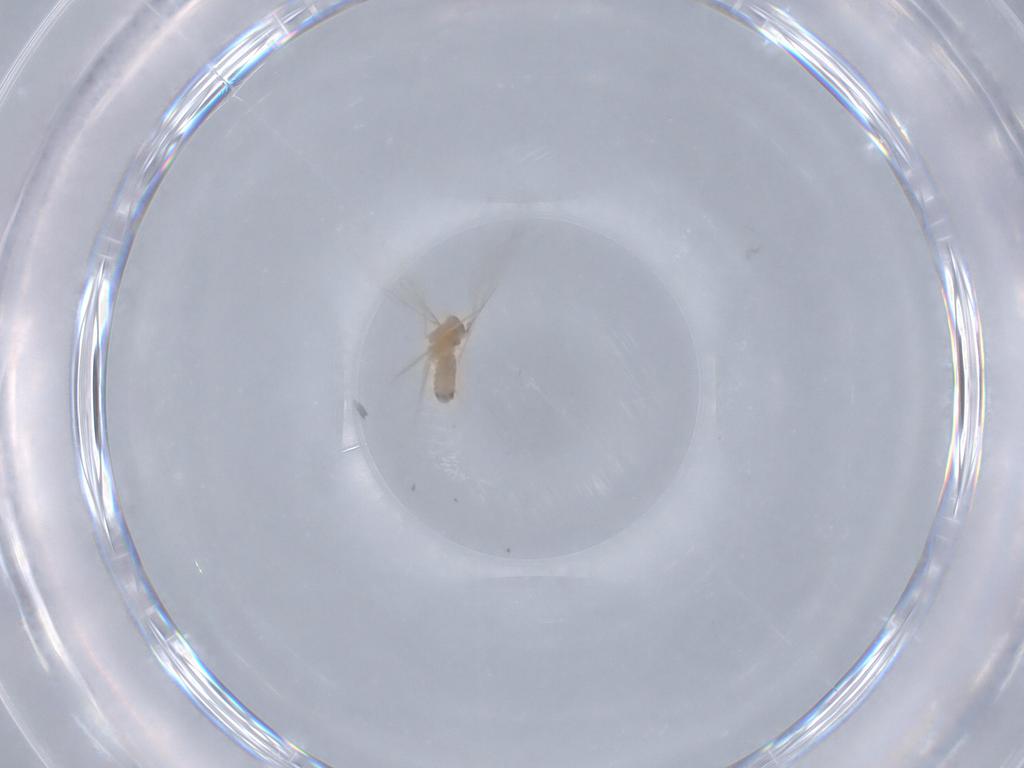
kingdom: Animalia
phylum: Arthropoda
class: Insecta
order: Diptera
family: Cecidomyiidae
